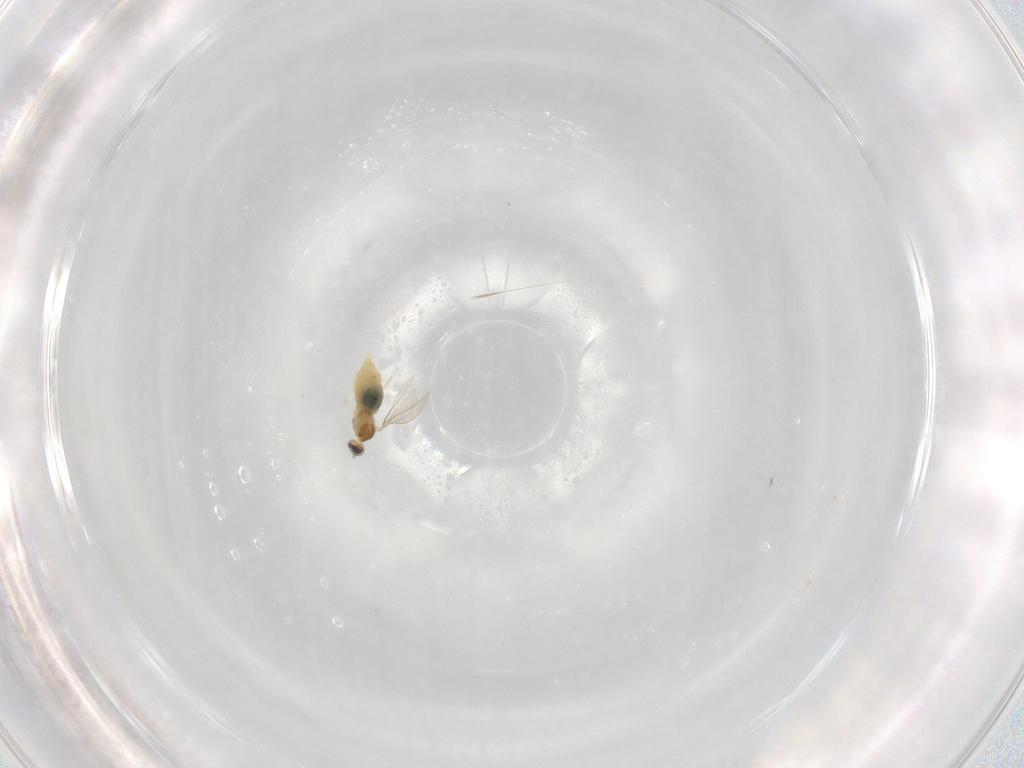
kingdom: Animalia
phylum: Arthropoda
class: Insecta
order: Diptera
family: Cecidomyiidae
